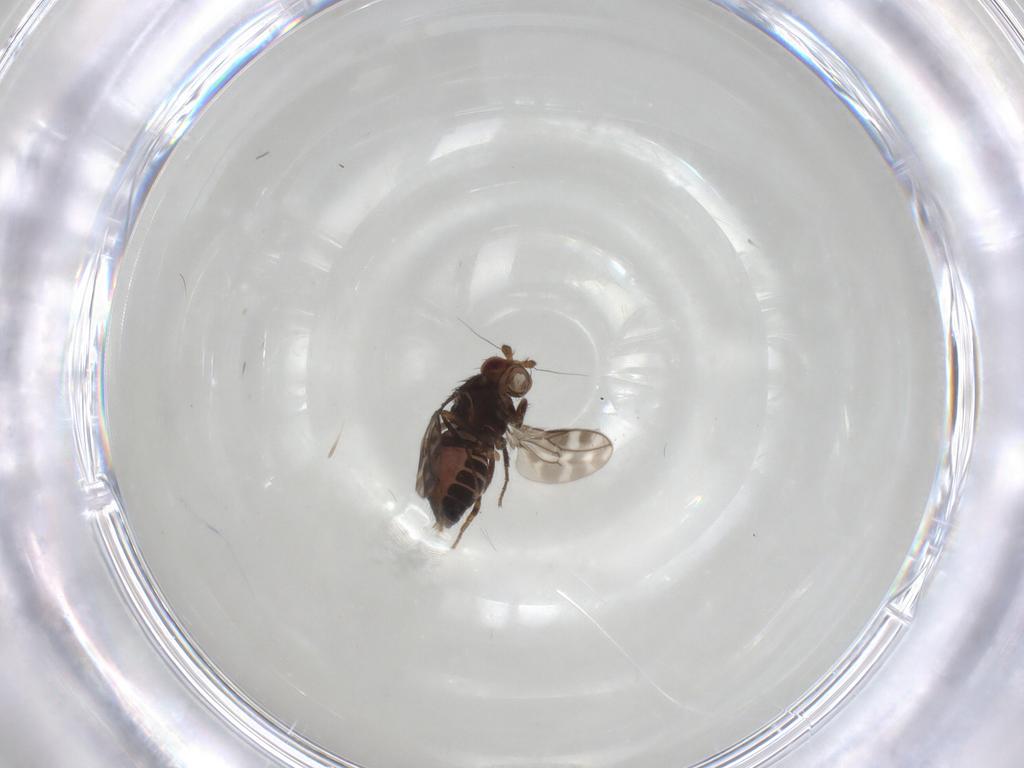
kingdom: Animalia
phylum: Arthropoda
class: Insecta
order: Diptera
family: Sphaeroceridae
